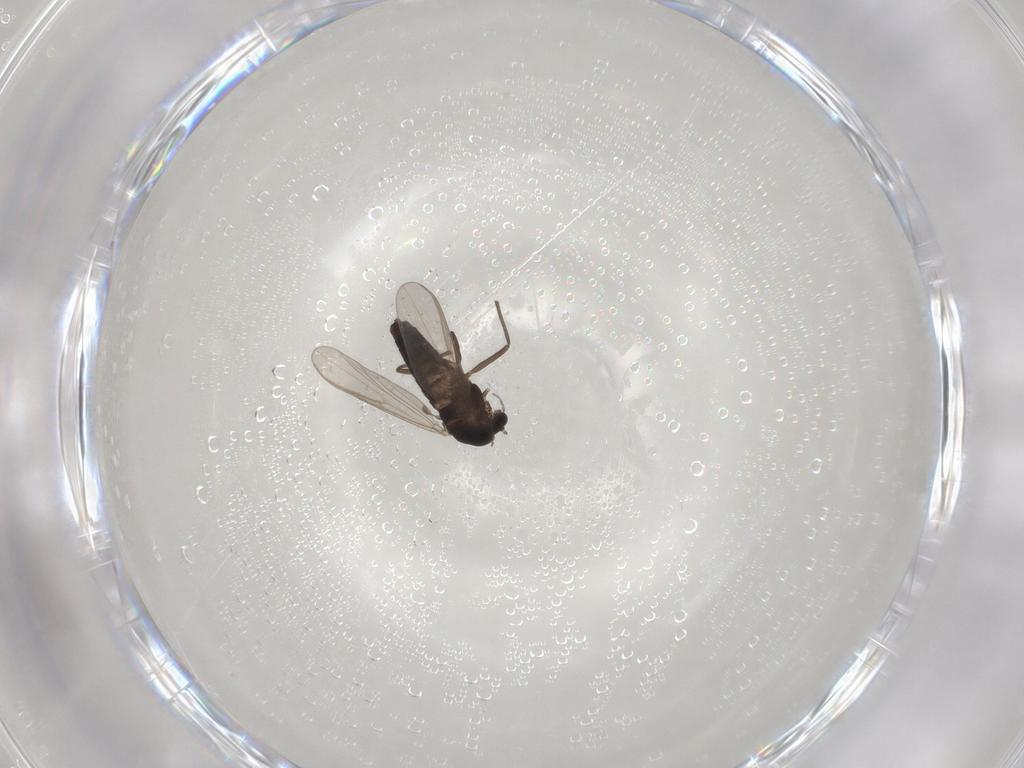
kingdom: Animalia
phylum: Arthropoda
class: Insecta
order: Diptera
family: Chironomidae
